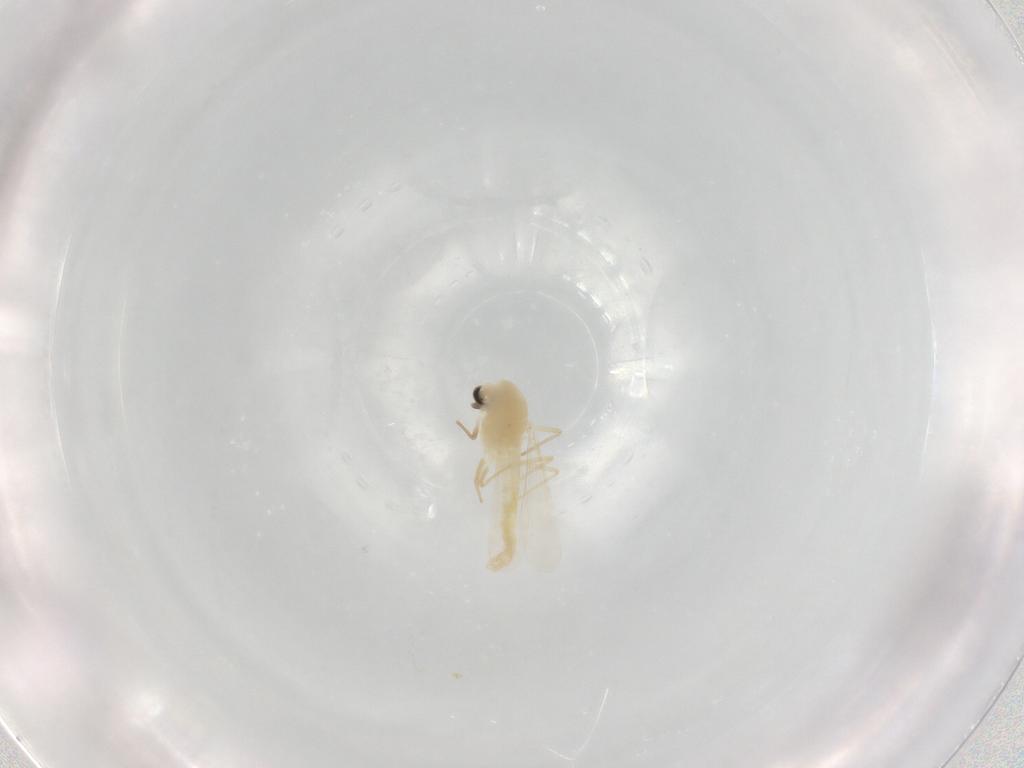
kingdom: Animalia
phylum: Arthropoda
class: Insecta
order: Diptera
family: Chironomidae
